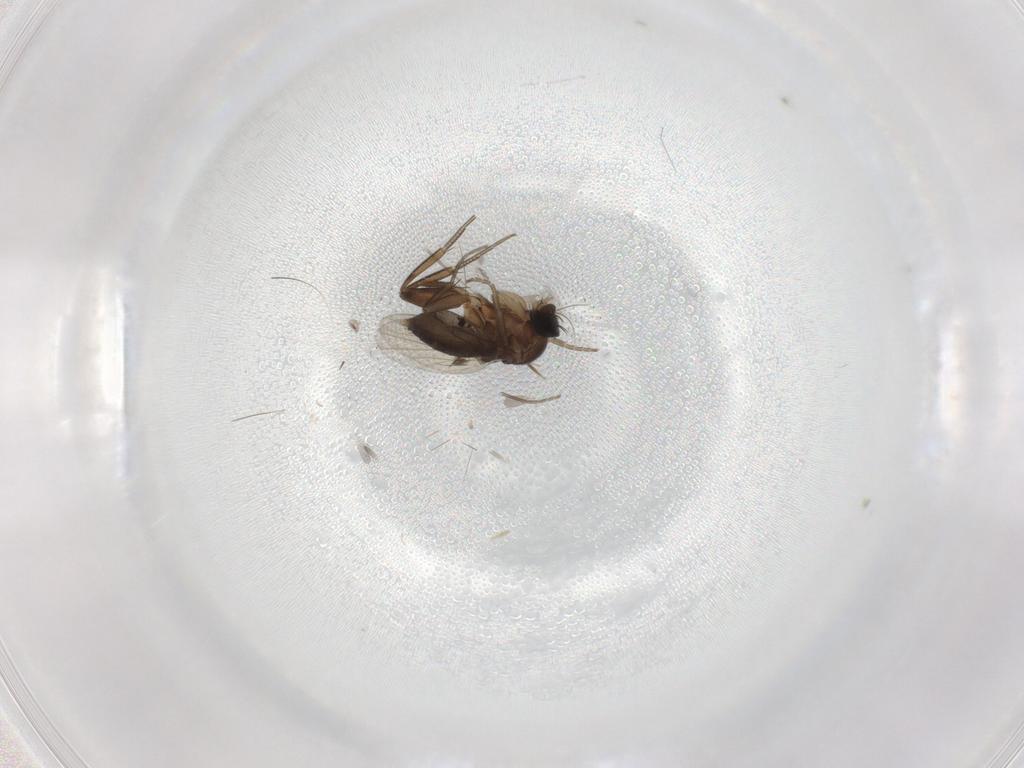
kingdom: Animalia
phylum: Arthropoda
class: Insecta
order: Diptera
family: Phoridae
